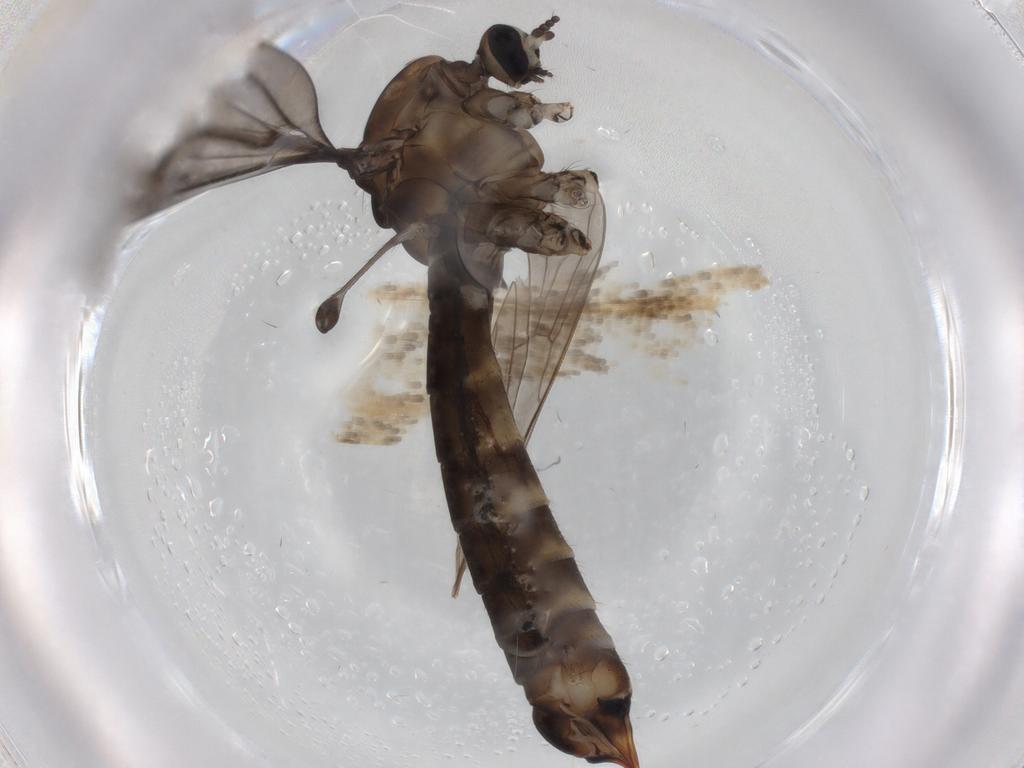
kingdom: Animalia
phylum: Arthropoda
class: Insecta
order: Diptera
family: Limoniidae
